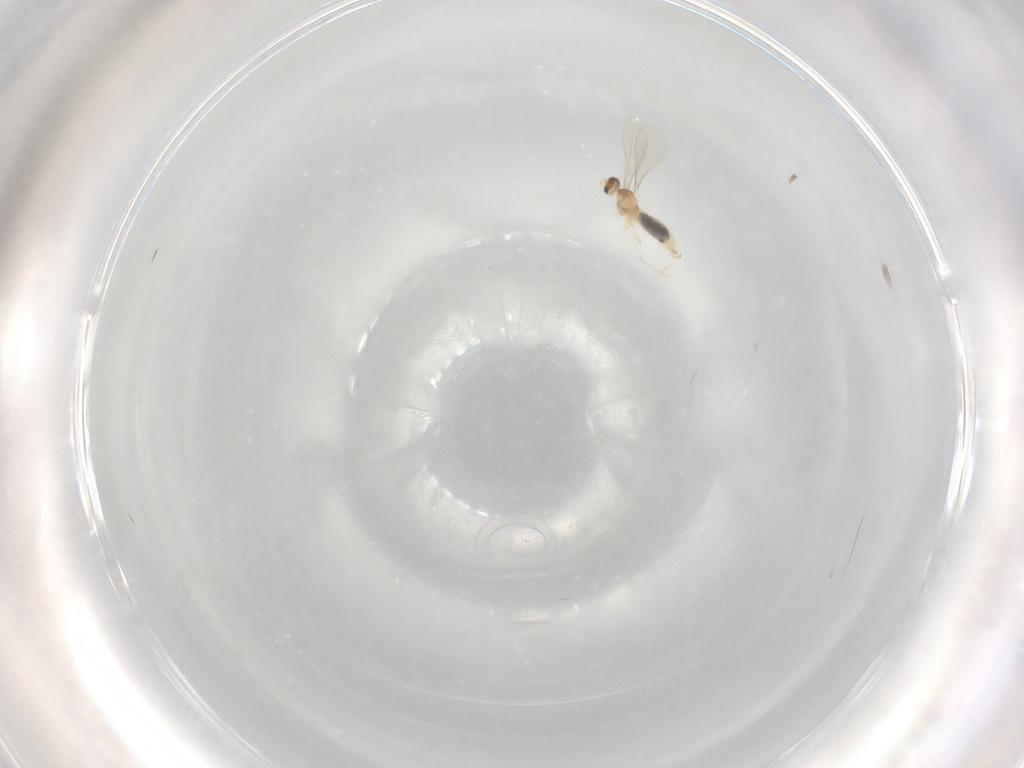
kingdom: Animalia
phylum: Arthropoda
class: Insecta
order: Diptera
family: Cecidomyiidae
